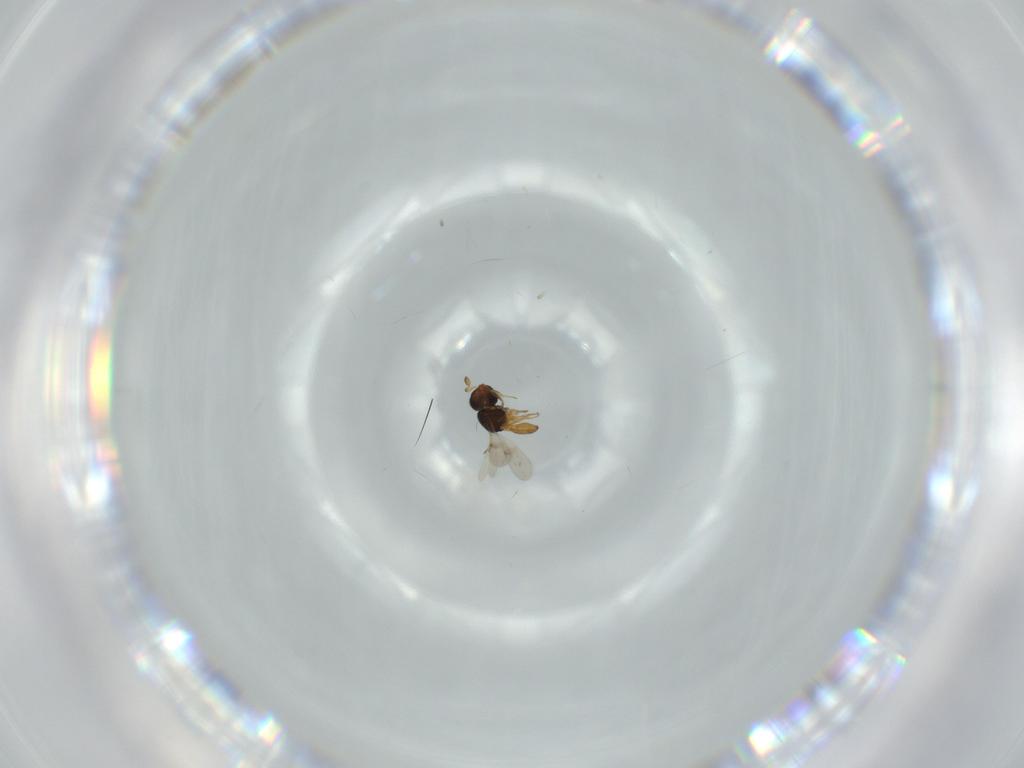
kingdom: Animalia
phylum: Arthropoda
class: Insecta
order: Hymenoptera
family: Scelionidae
